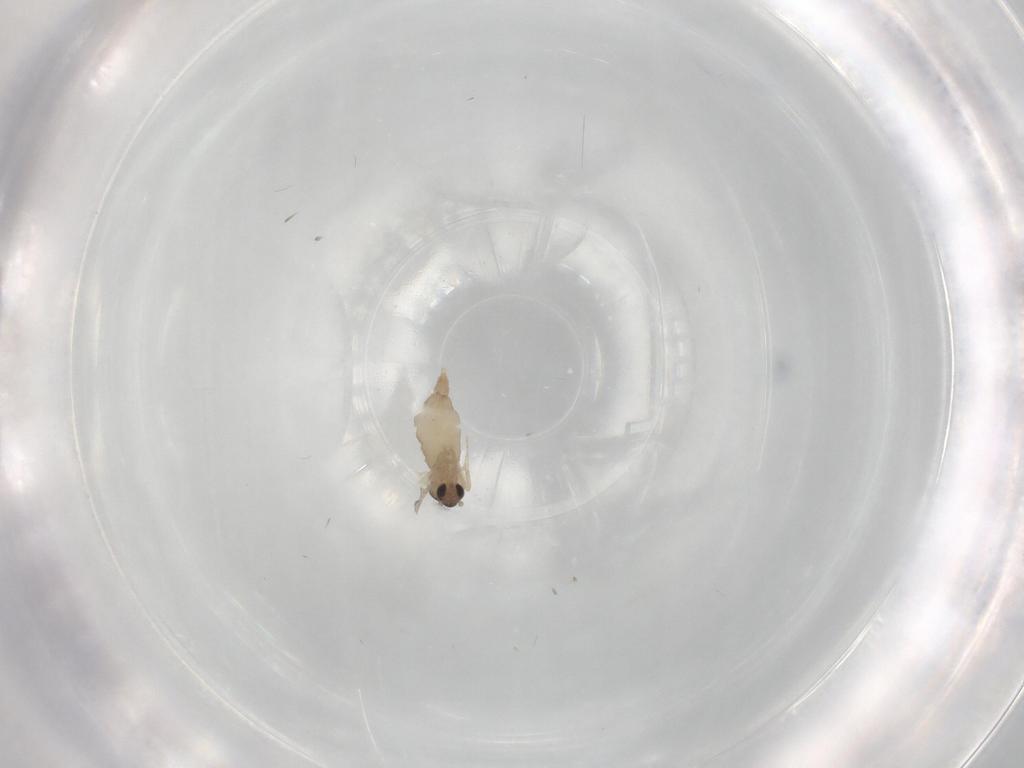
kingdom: Animalia
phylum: Arthropoda
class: Insecta
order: Diptera
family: Cecidomyiidae
